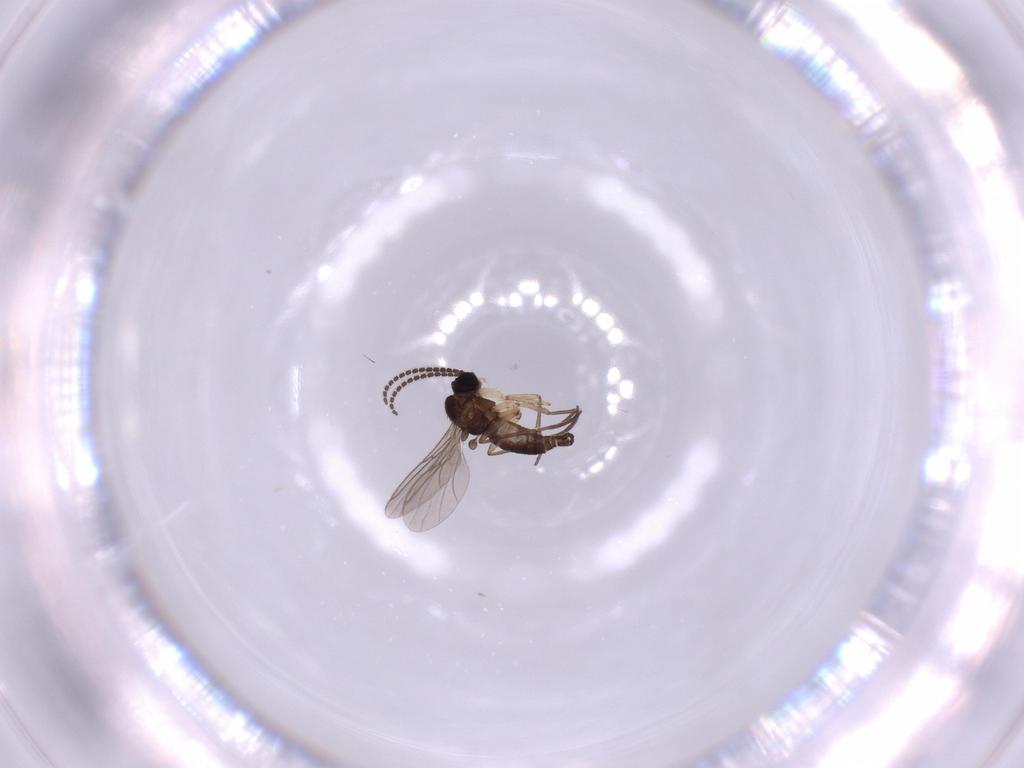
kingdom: Animalia
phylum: Arthropoda
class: Insecta
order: Diptera
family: Sciaridae
